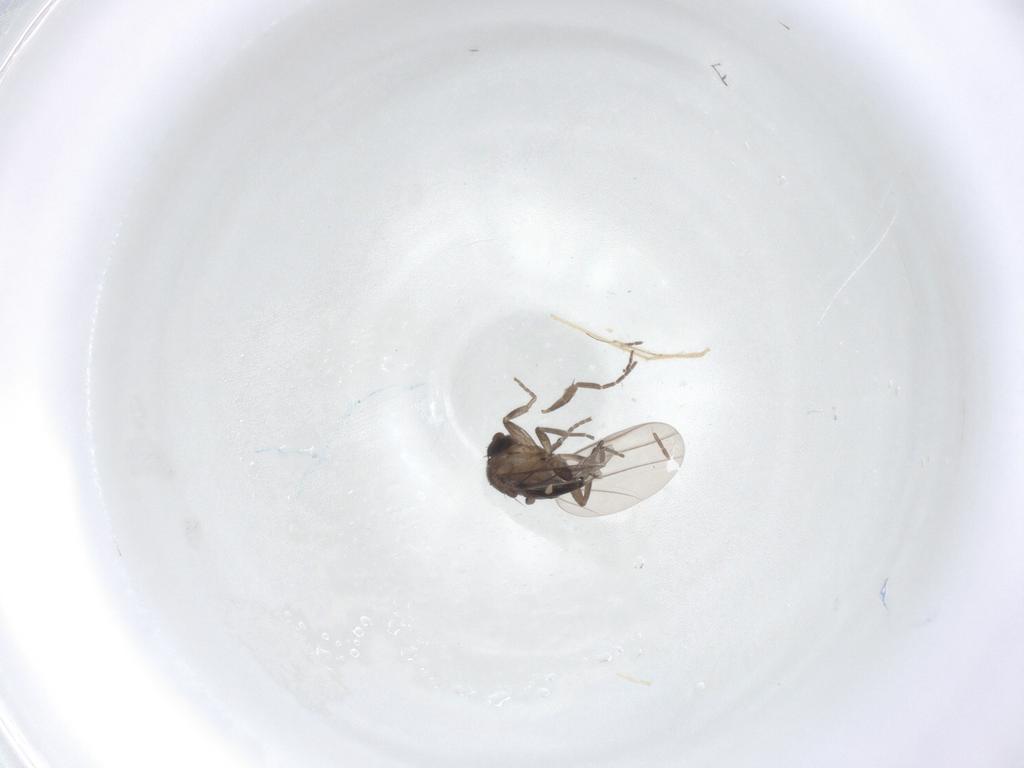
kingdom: Animalia
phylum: Arthropoda
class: Insecta
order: Diptera
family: Chironomidae
